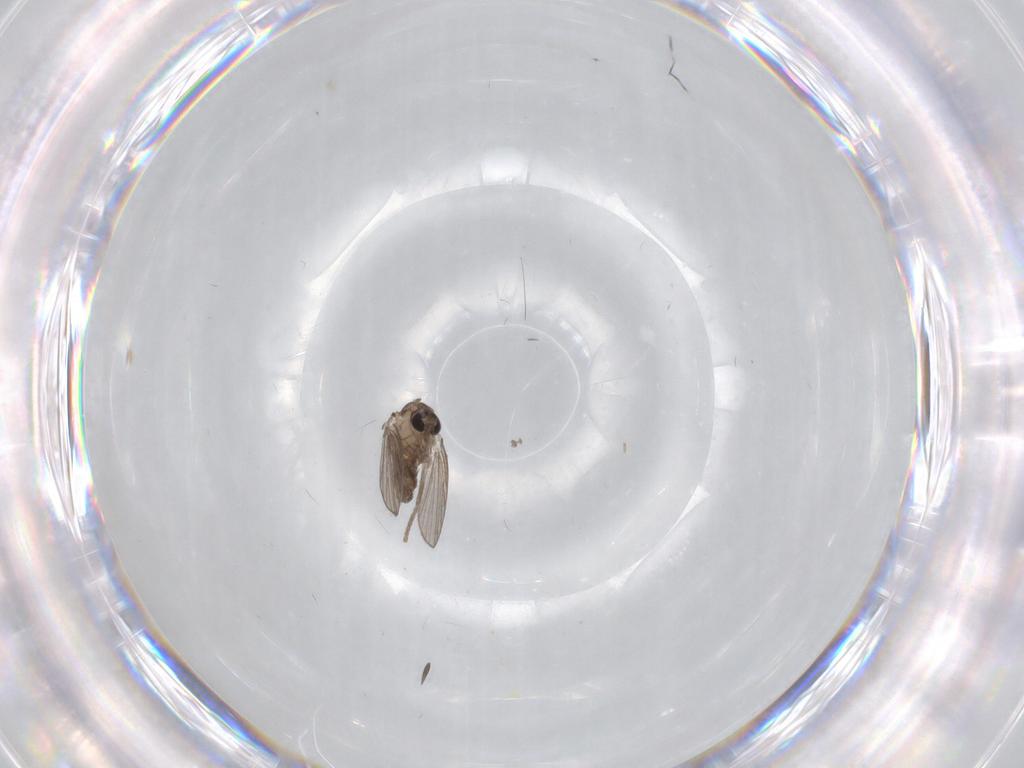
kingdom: Animalia
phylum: Arthropoda
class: Insecta
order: Diptera
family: Psychodidae
